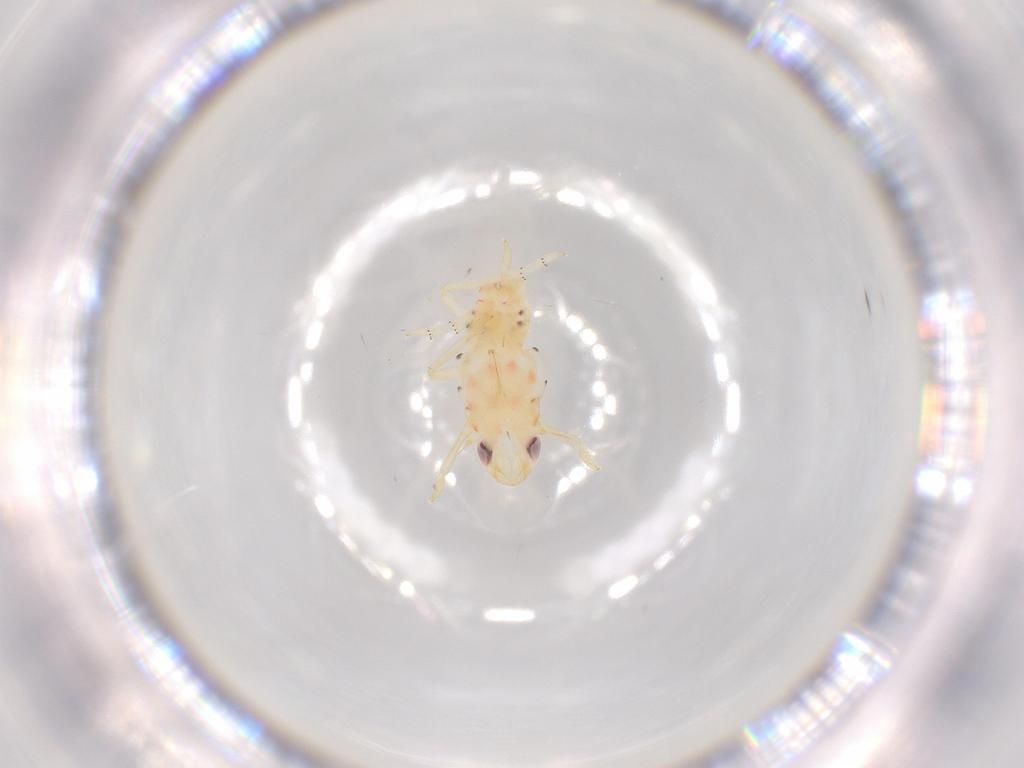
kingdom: Animalia
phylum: Arthropoda
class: Insecta
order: Hemiptera
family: Tropiduchidae
